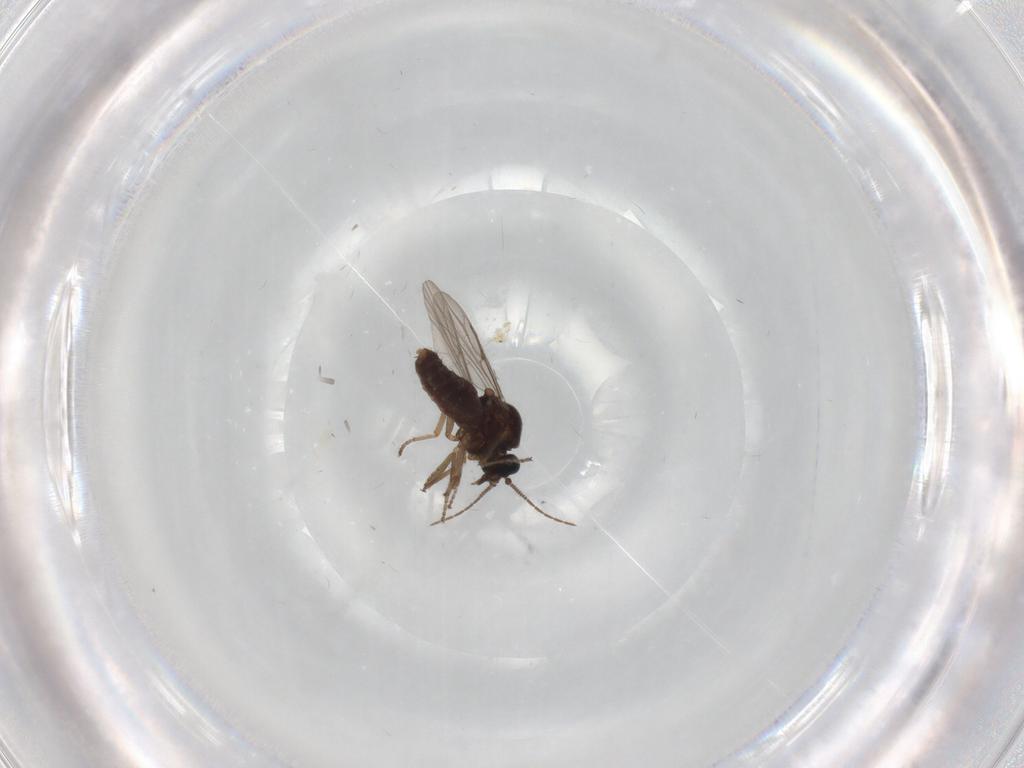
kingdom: Animalia
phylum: Arthropoda
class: Insecta
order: Diptera
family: Ceratopogonidae
